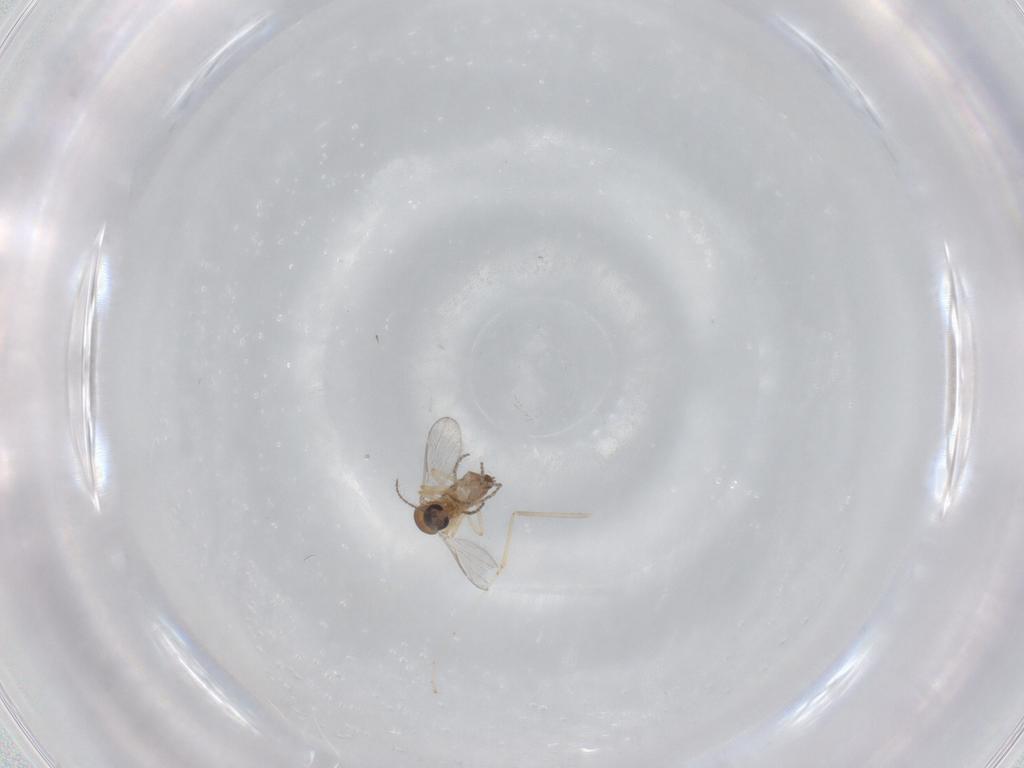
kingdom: Animalia
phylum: Arthropoda
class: Insecta
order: Diptera
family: Cecidomyiidae
